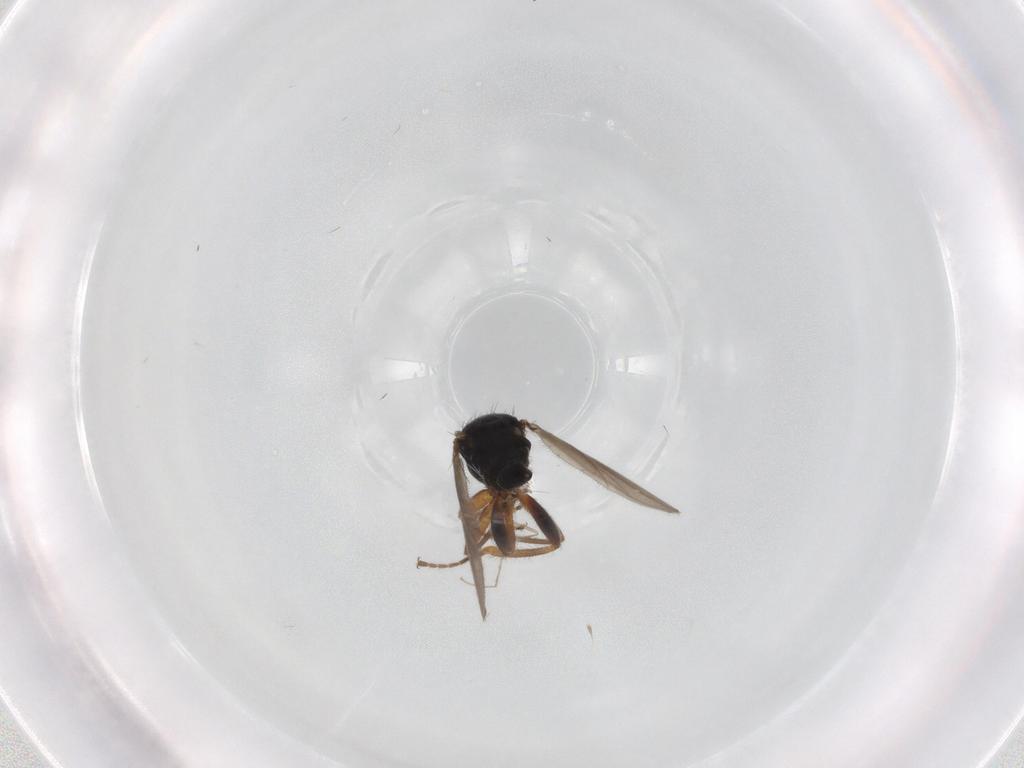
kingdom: Animalia
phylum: Arthropoda
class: Insecta
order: Diptera
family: Hybotidae
